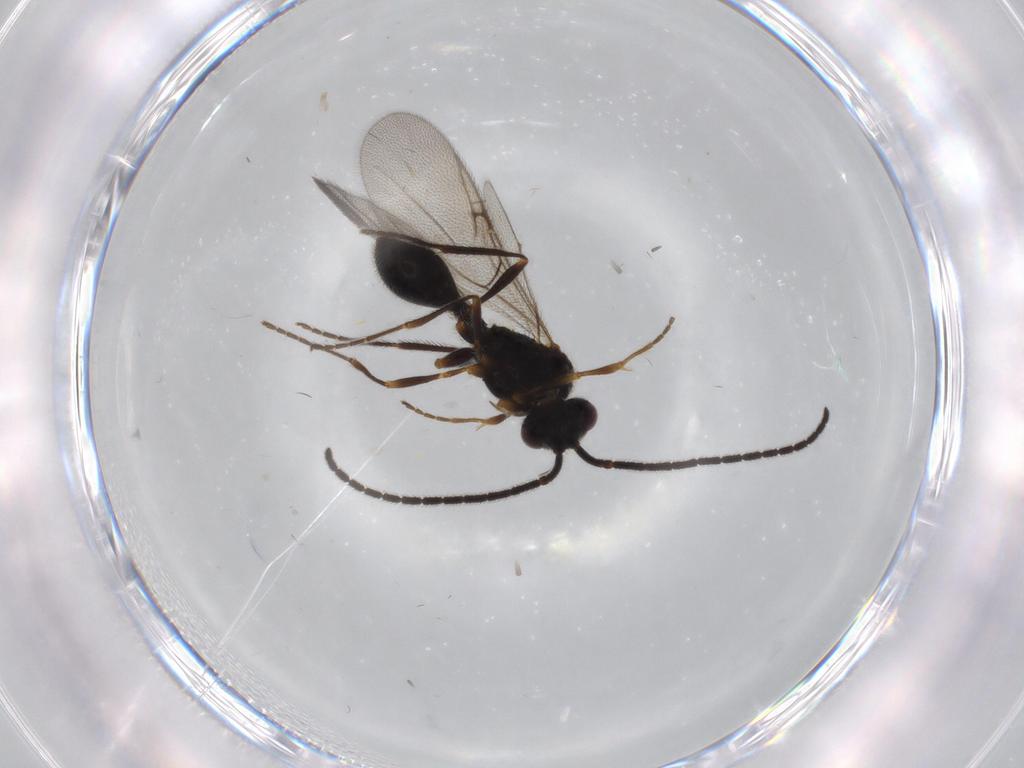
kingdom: Animalia
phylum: Arthropoda
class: Insecta
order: Hymenoptera
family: Diapriidae
